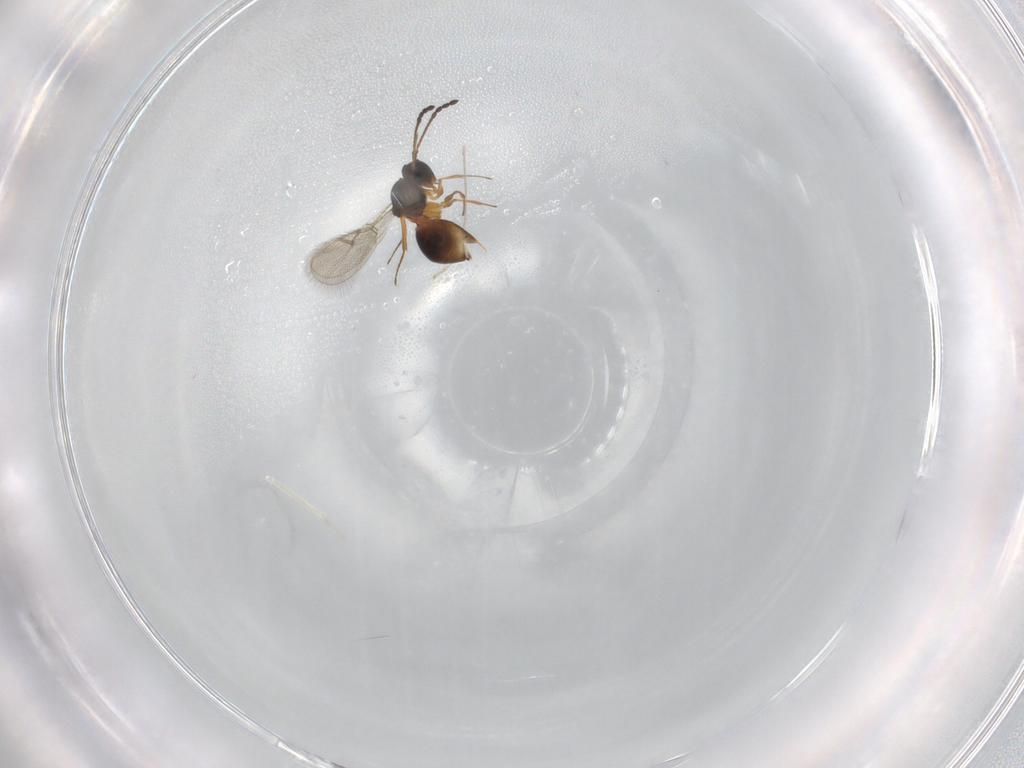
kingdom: Animalia
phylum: Arthropoda
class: Insecta
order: Hymenoptera
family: Figitidae
